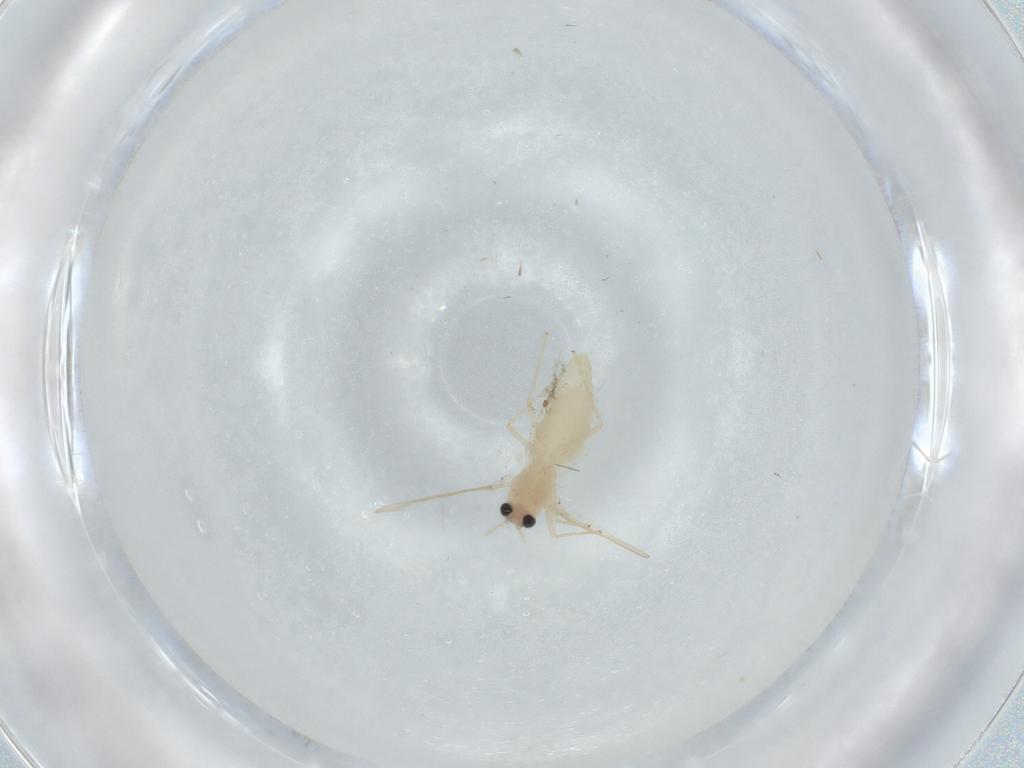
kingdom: Animalia
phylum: Arthropoda
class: Insecta
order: Diptera
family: Chironomidae
